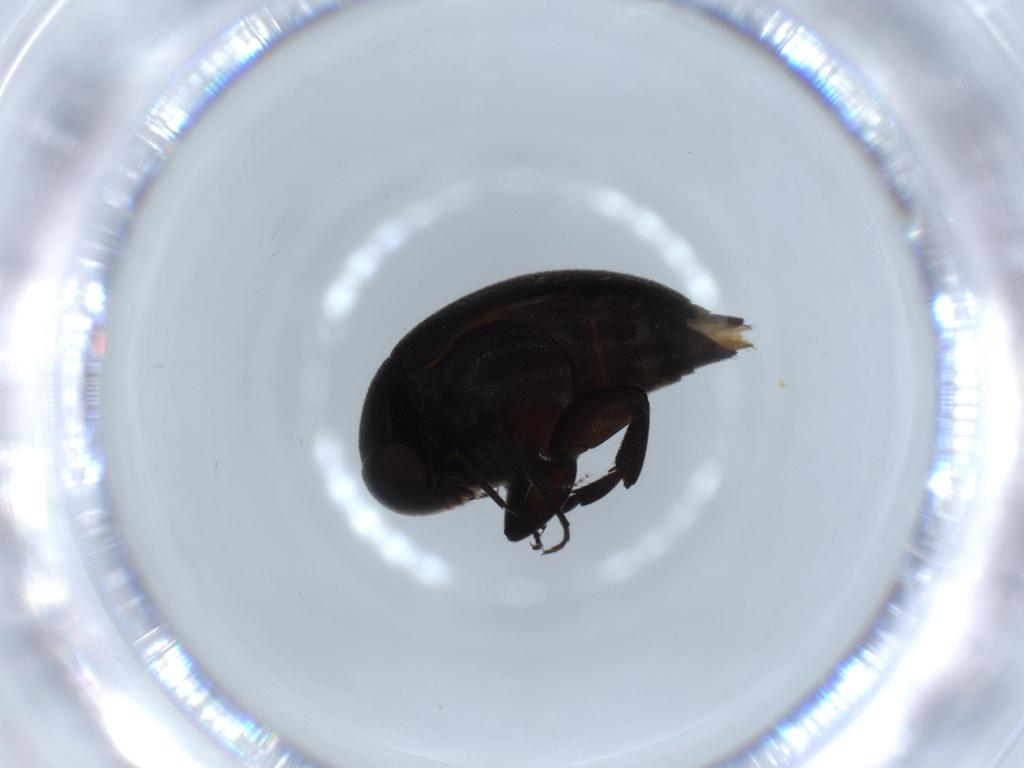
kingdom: Animalia
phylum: Arthropoda
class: Insecta
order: Coleoptera
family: Curculionidae
